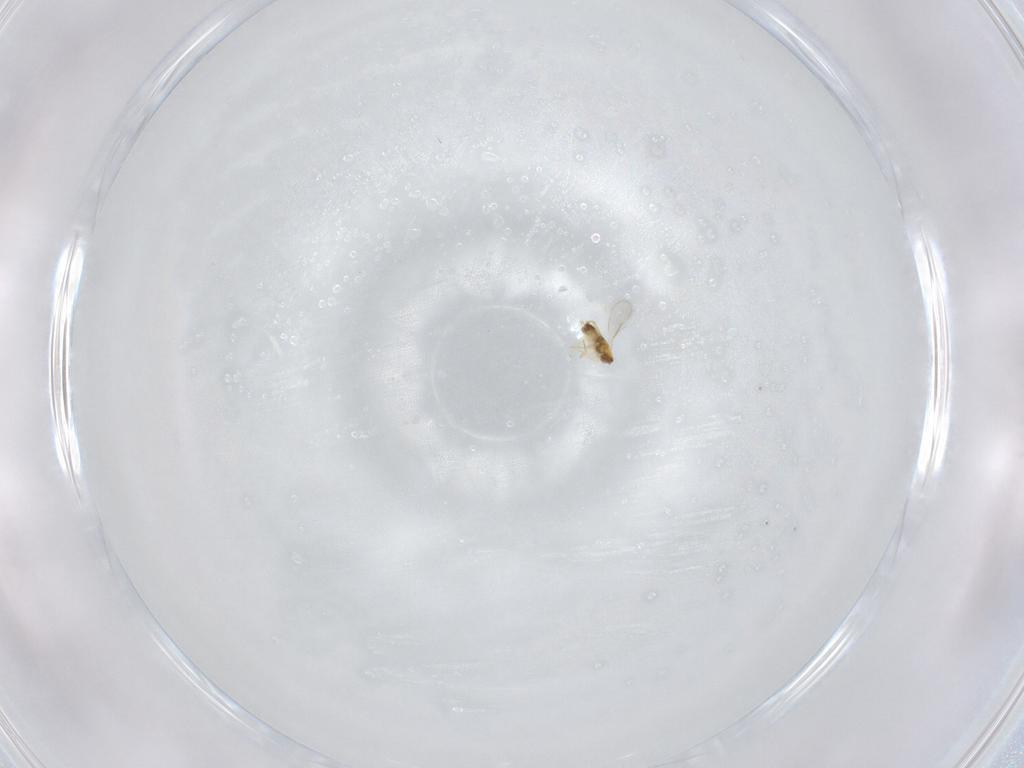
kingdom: Animalia
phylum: Arthropoda
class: Insecta
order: Hymenoptera
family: Aphelinidae
